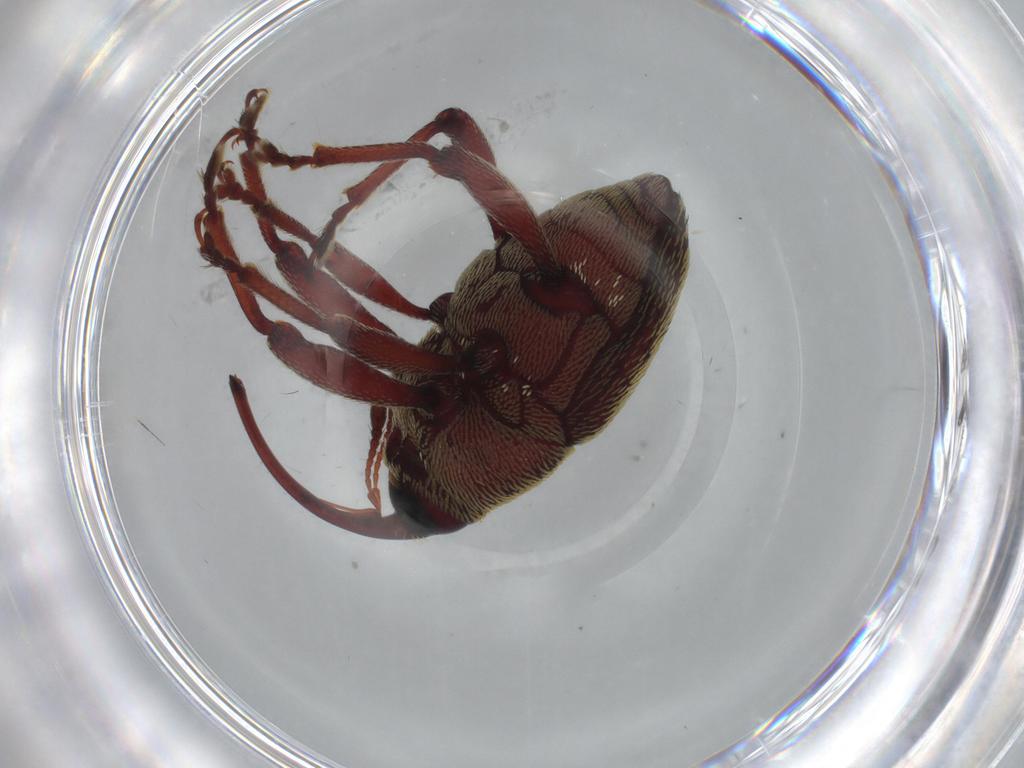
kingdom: Animalia
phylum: Arthropoda
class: Insecta
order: Coleoptera
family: Curculionidae
